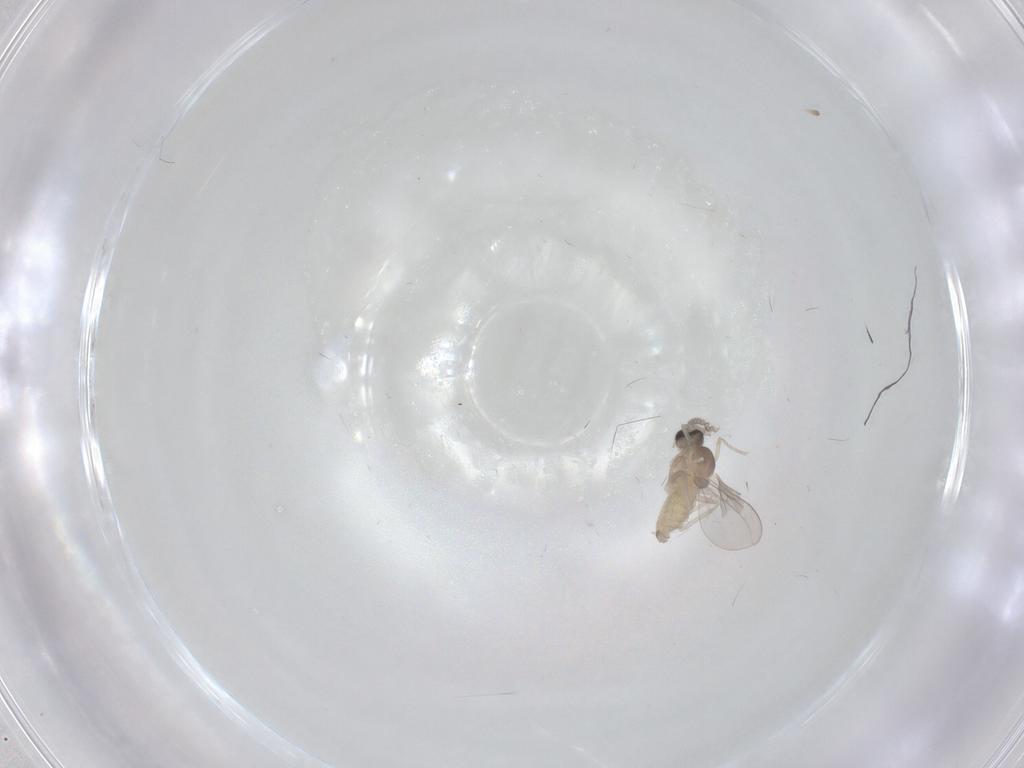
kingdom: Animalia
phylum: Arthropoda
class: Insecta
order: Diptera
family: Cecidomyiidae
